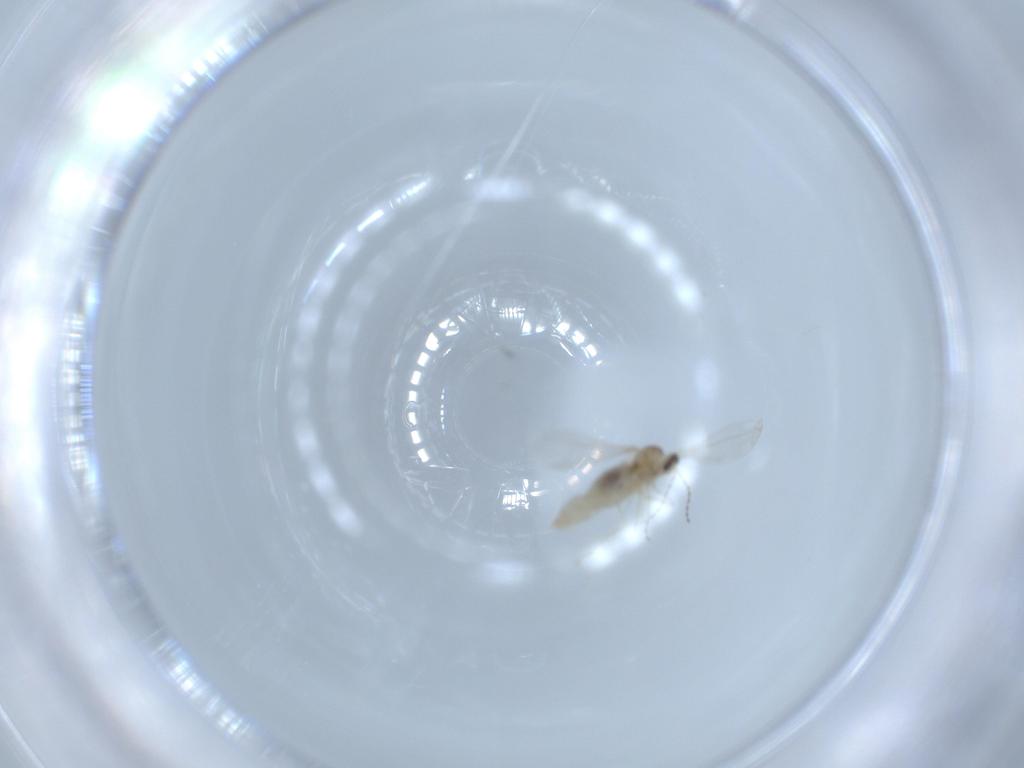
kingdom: Animalia
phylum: Arthropoda
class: Insecta
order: Diptera
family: Cecidomyiidae
